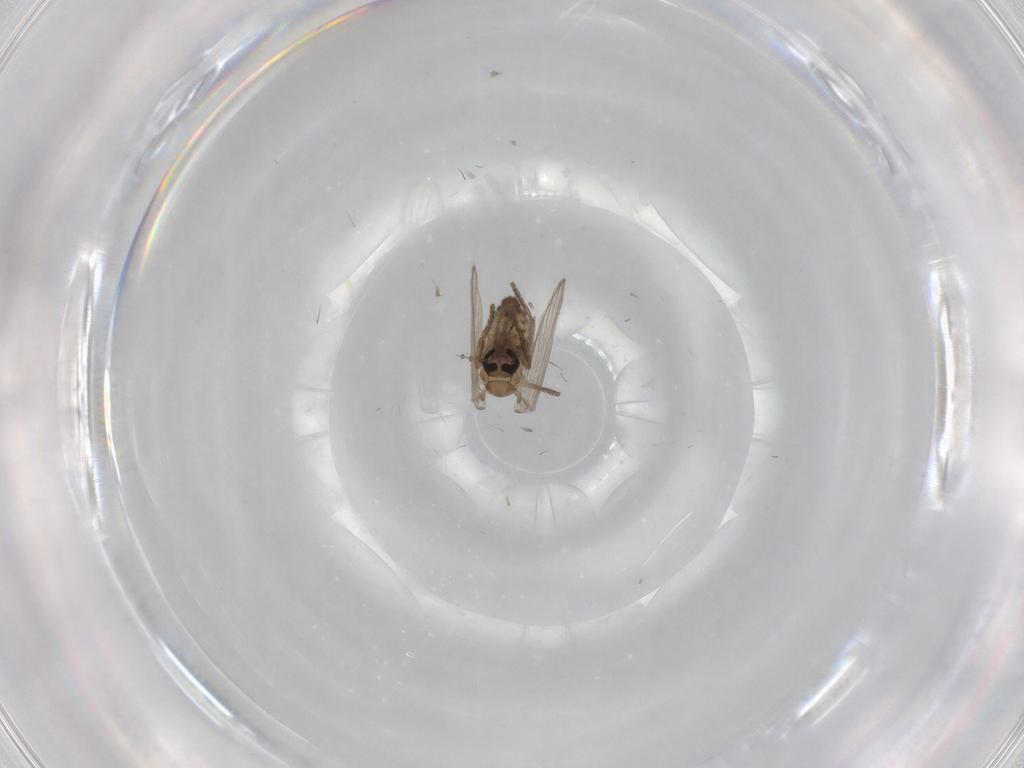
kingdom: Animalia
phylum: Arthropoda
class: Insecta
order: Diptera
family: Psychodidae
